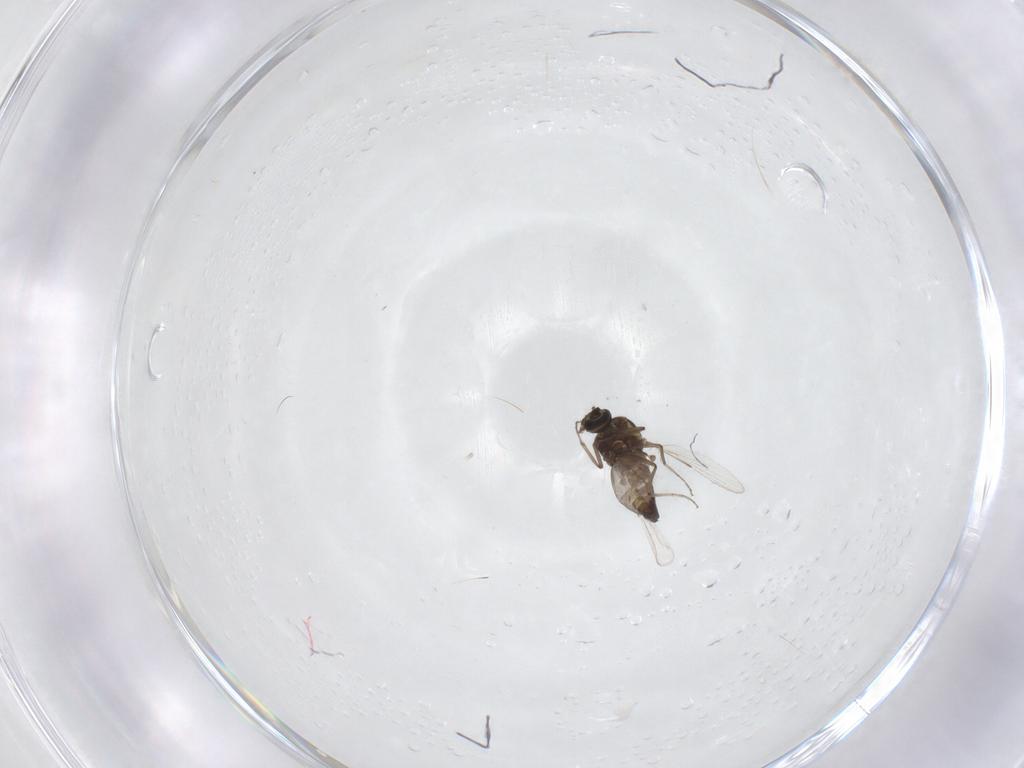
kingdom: Animalia
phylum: Arthropoda
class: Insecta
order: Diptera
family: Ceratopogonidae
